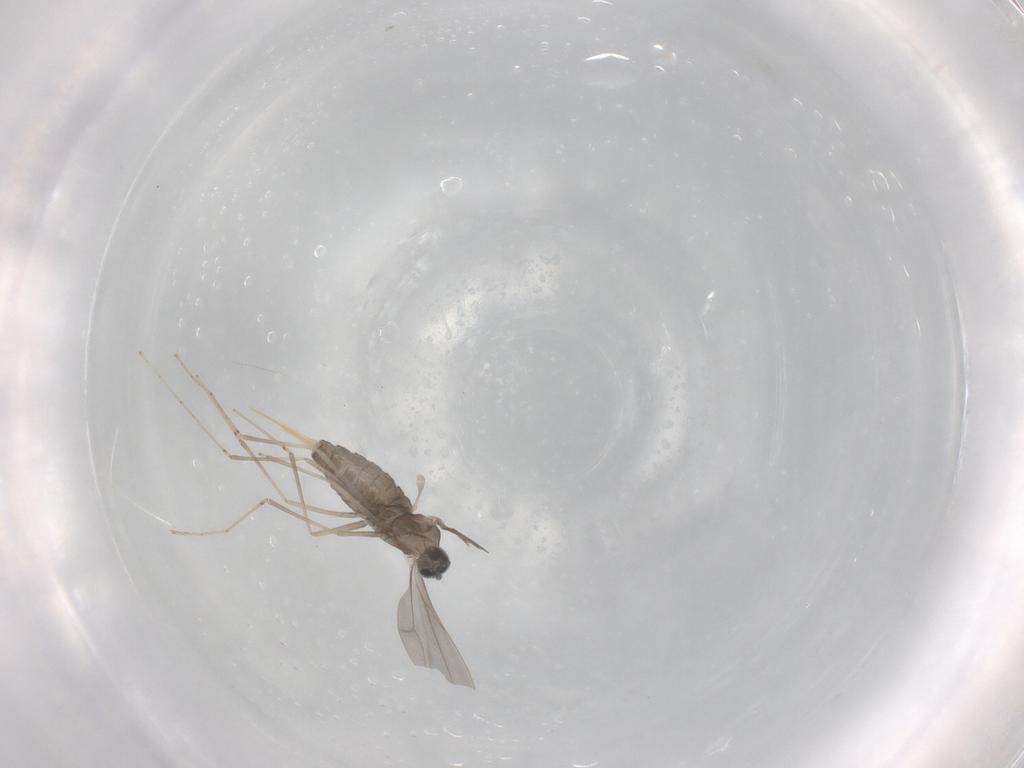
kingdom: Animalia
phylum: Arthropoda
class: Insecta
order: Diptera
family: Cecidomyiidae
